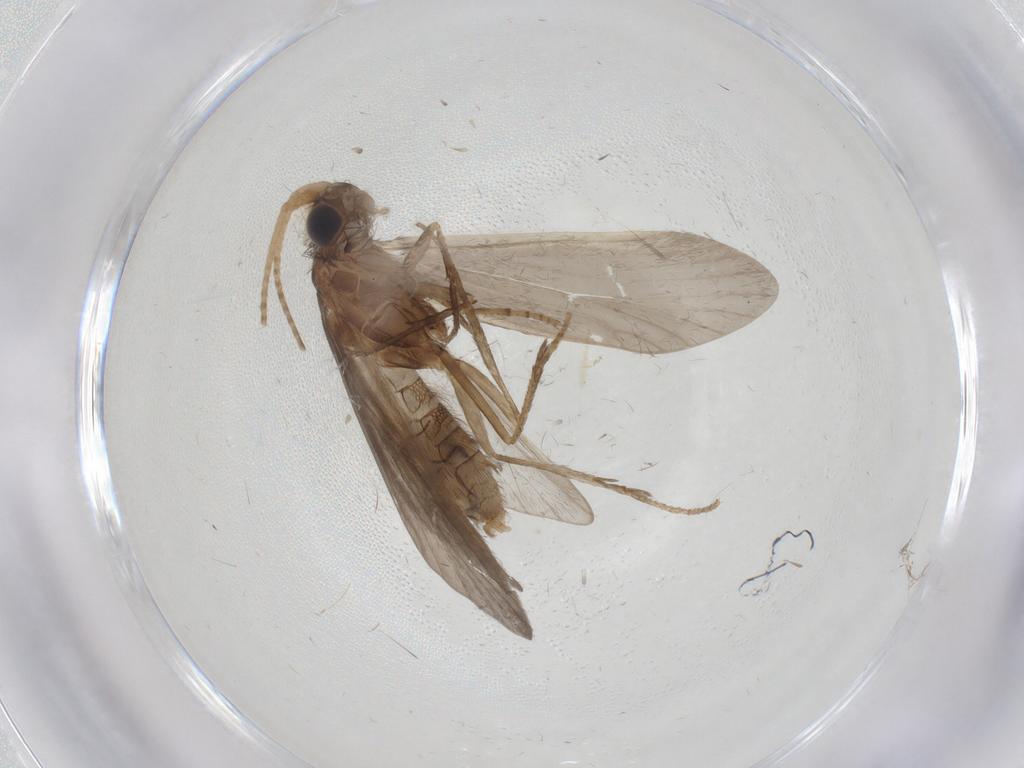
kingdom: Animalia
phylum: Arthropoda
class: Insecta
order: Trichoptera
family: Helicopsychidae
